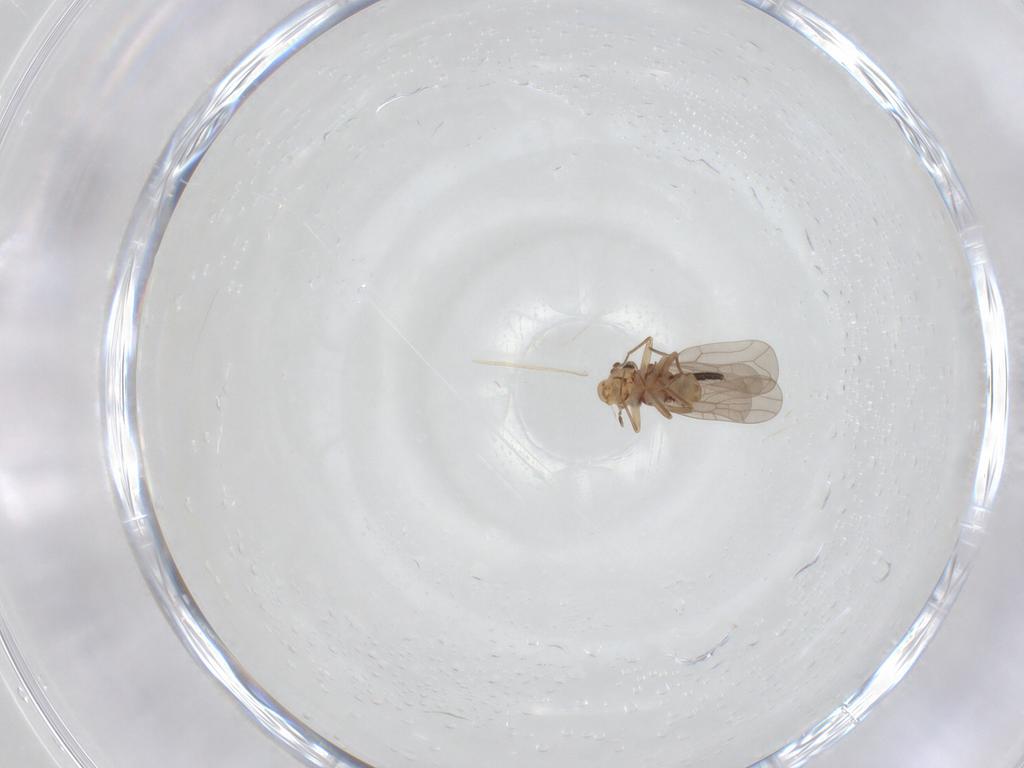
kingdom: Animalia
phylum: Arthropoda
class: Insecta
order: Diptera
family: Sciaridae
